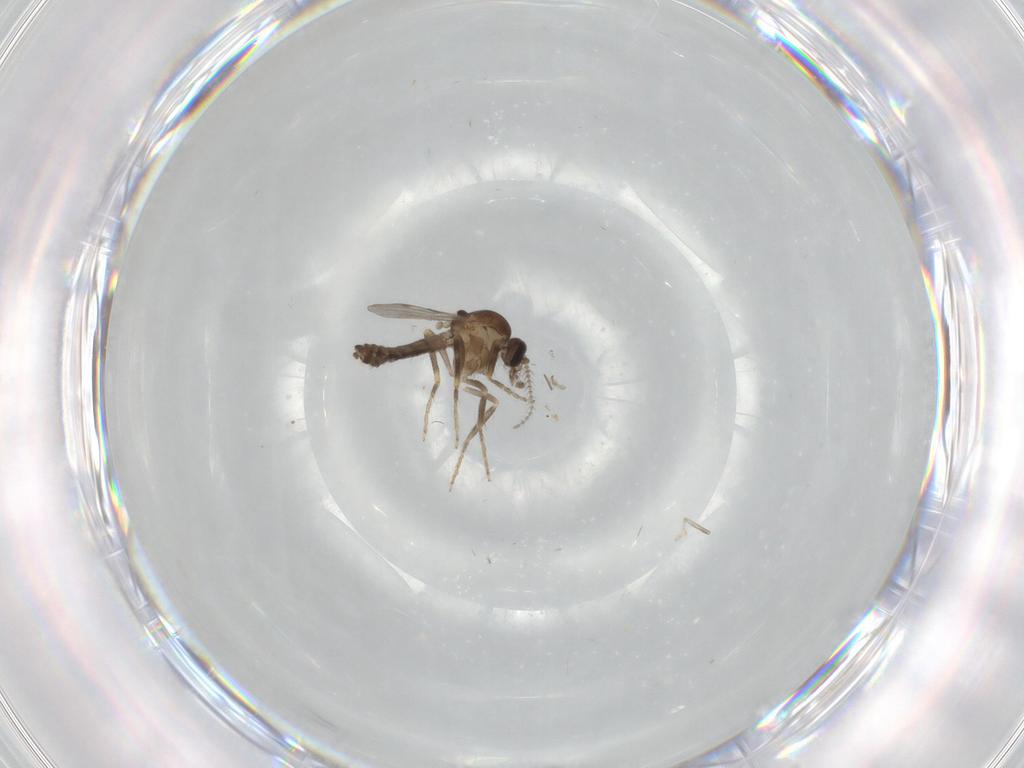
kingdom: Animalia
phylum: Arthropoda
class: Insecta
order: Diptera
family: Ceratopogonidae
